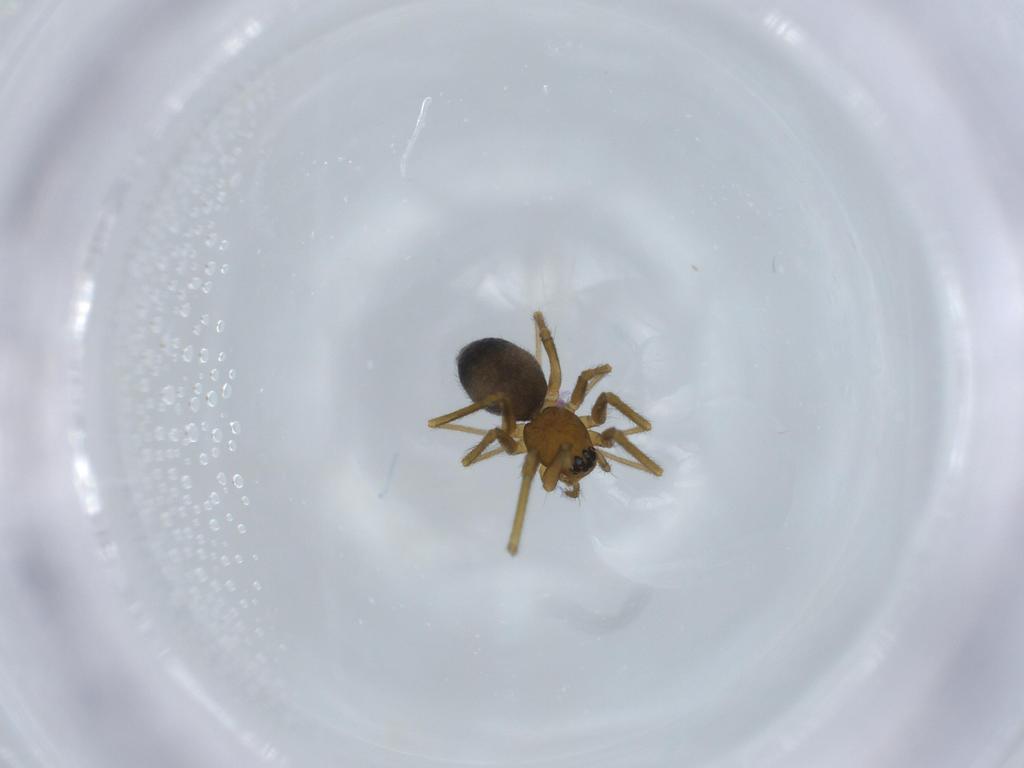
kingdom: Animalia
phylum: Arthropoda
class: Arachnida
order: Araneae
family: Linyphiidae
